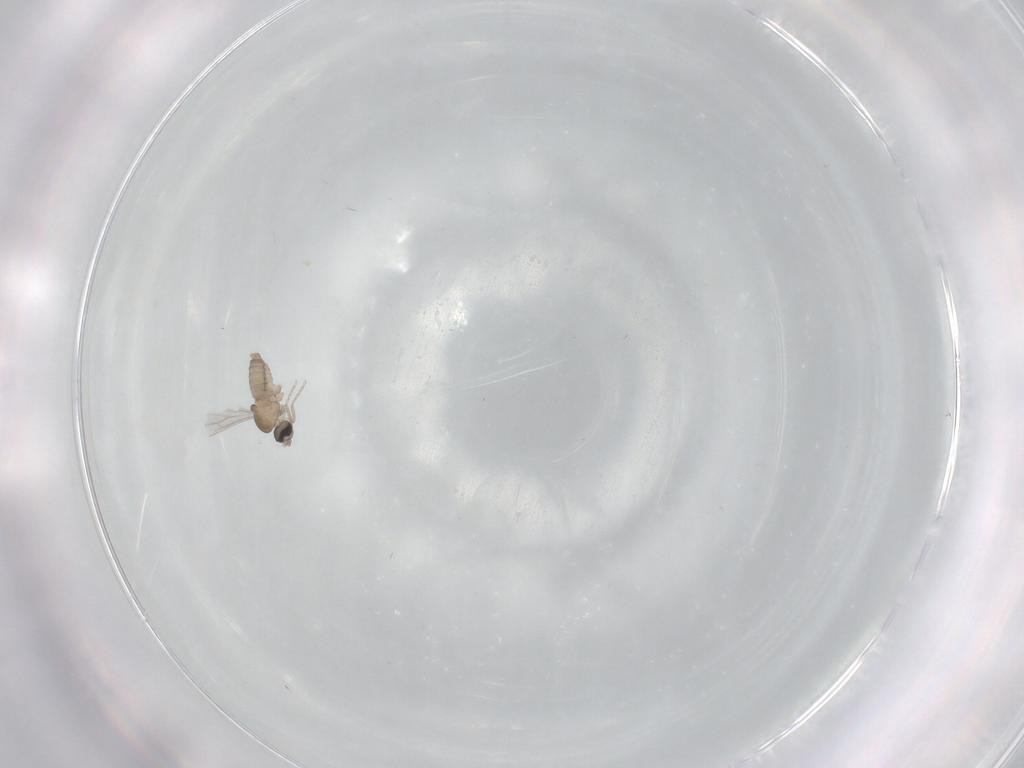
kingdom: Animalia
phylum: Arthropoda
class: Insecta
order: Diptera
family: Cecidomyiidae
